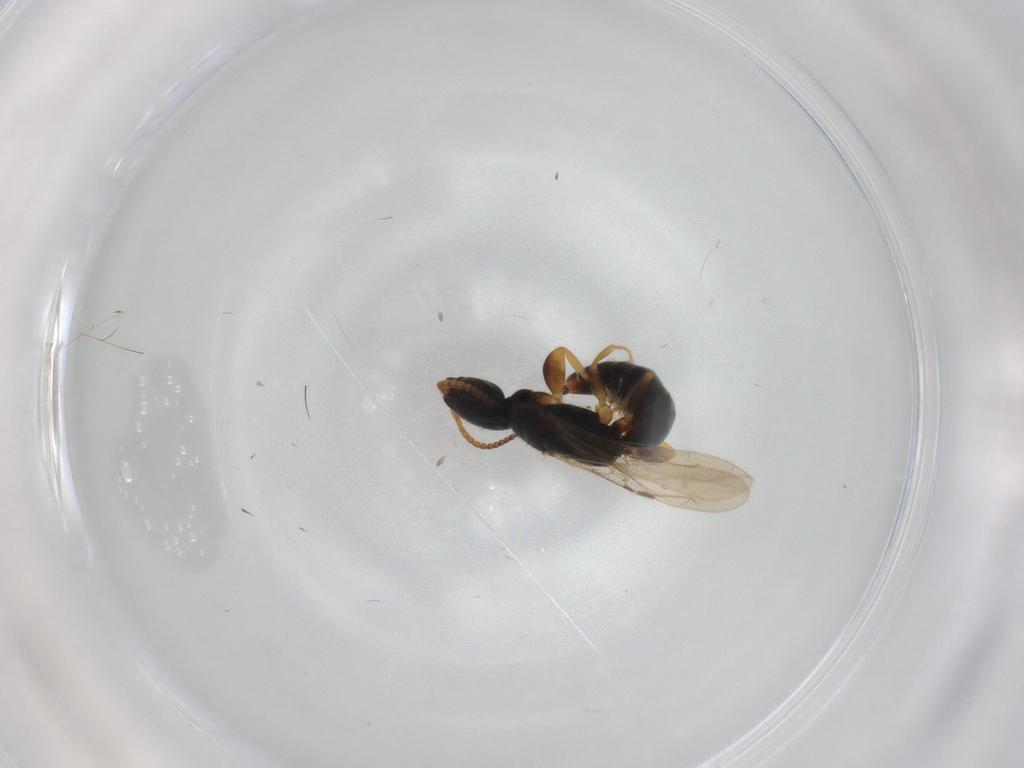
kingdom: Animalia
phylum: Arthropoda
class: Insecta
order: Hymenoptera
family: Bethylidae
